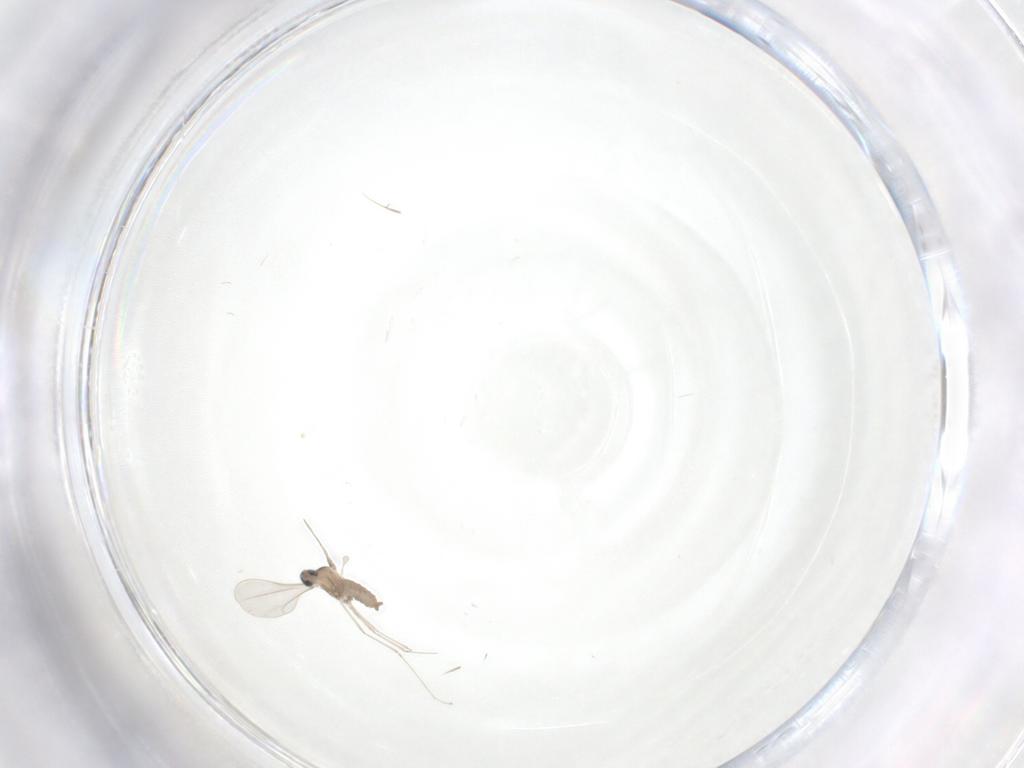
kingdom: Animalia
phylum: Arthropoda
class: Insecta
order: Diptera
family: Cecidomyiidae
